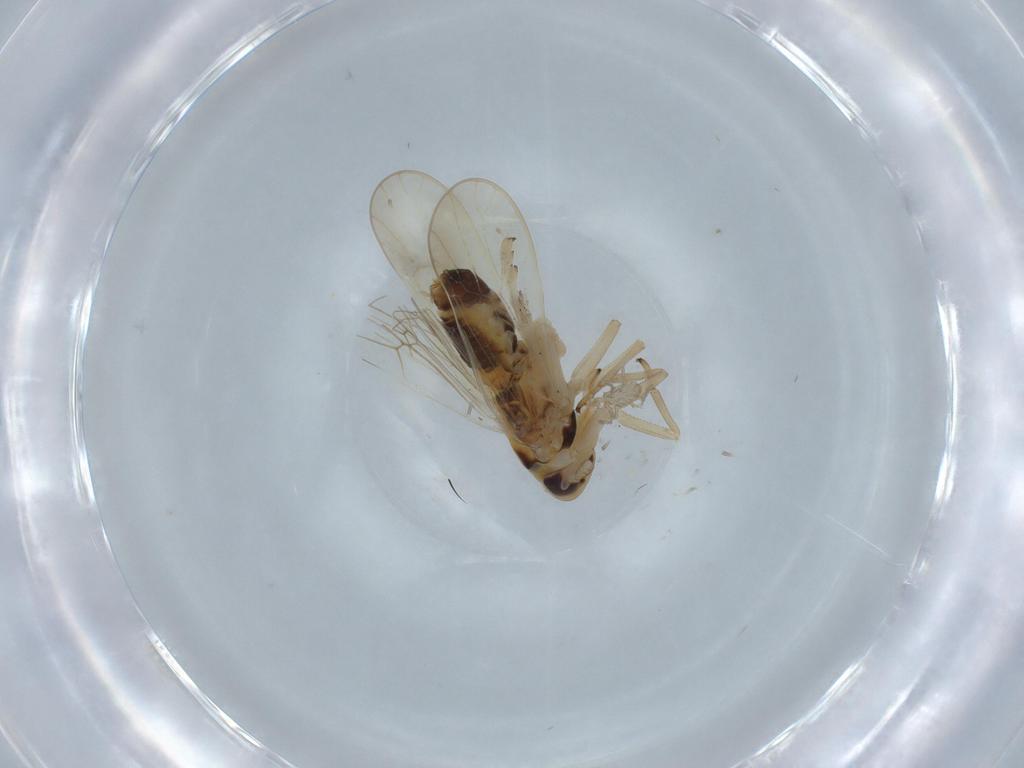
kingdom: Animalia
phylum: Arthropoda
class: Insecta
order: Hemiptera
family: Delphacidae
